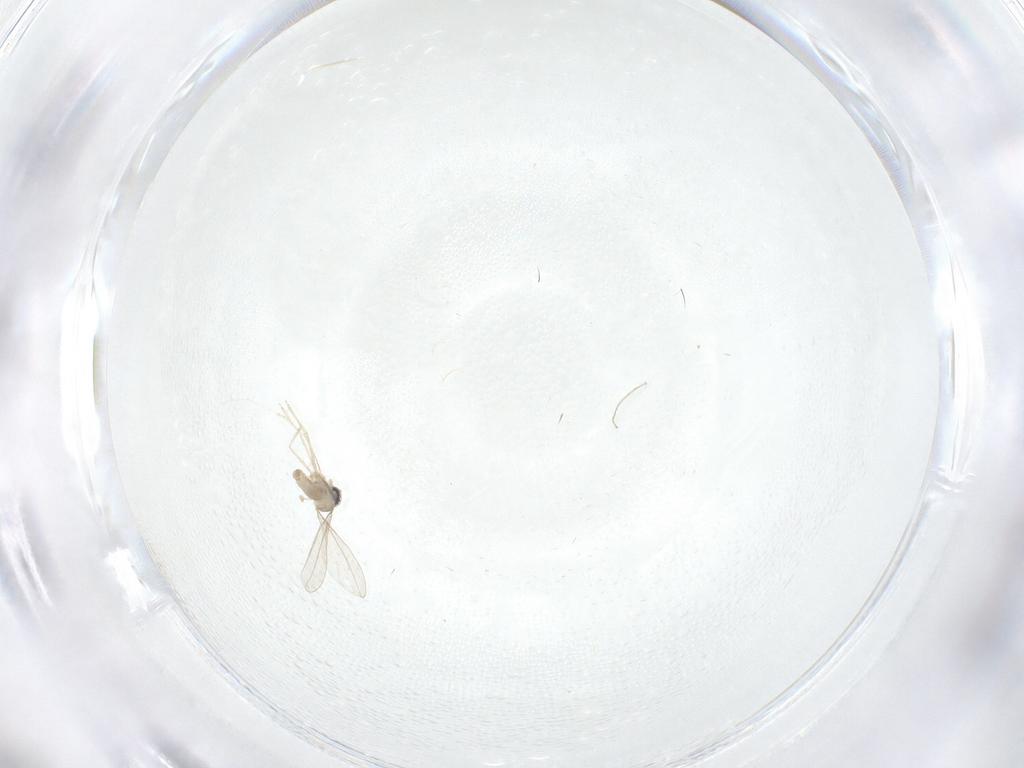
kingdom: Animalia
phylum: Arthropoda
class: Insecta
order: Diptera
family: Cecidomyiidae
